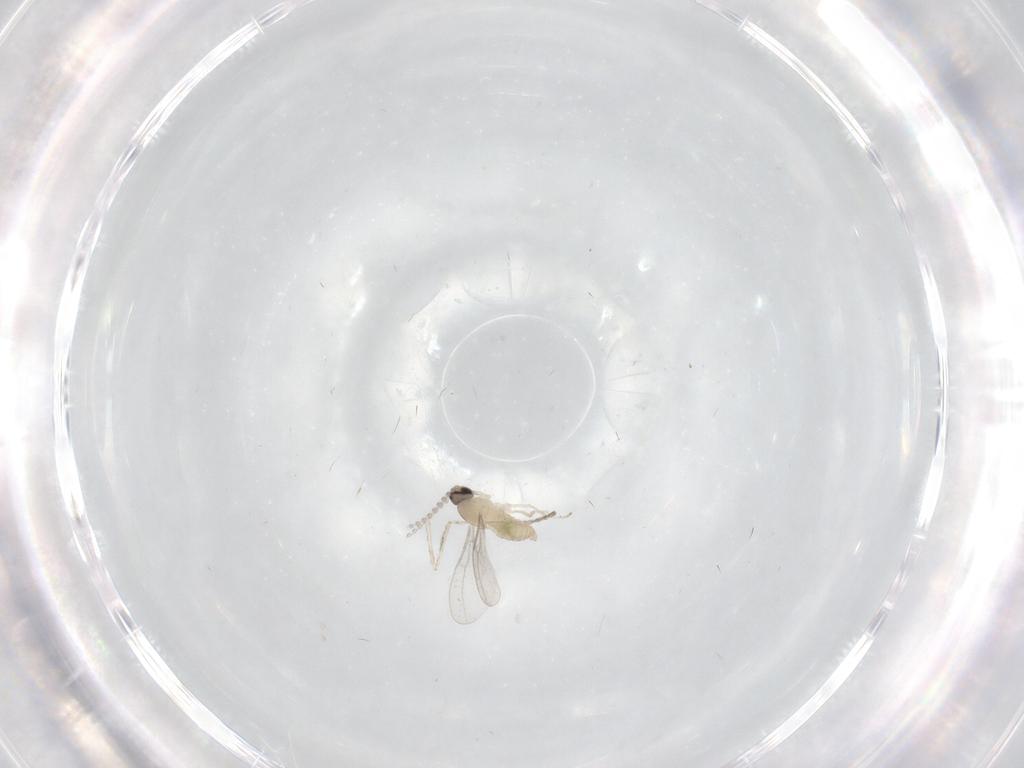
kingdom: Animalia
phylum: Arthropoda
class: Insecta
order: Diptera
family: Cecidomyiidae
